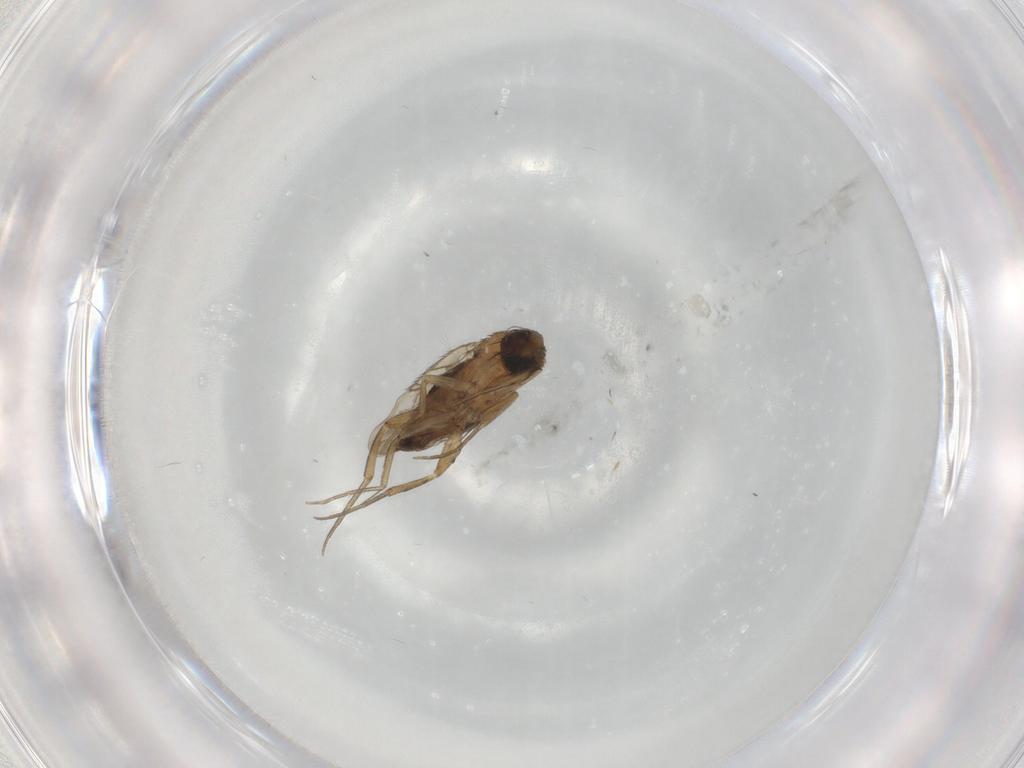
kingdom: Animalia
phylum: Arthropoda
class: Insecta
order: Diptera
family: Phoridae
